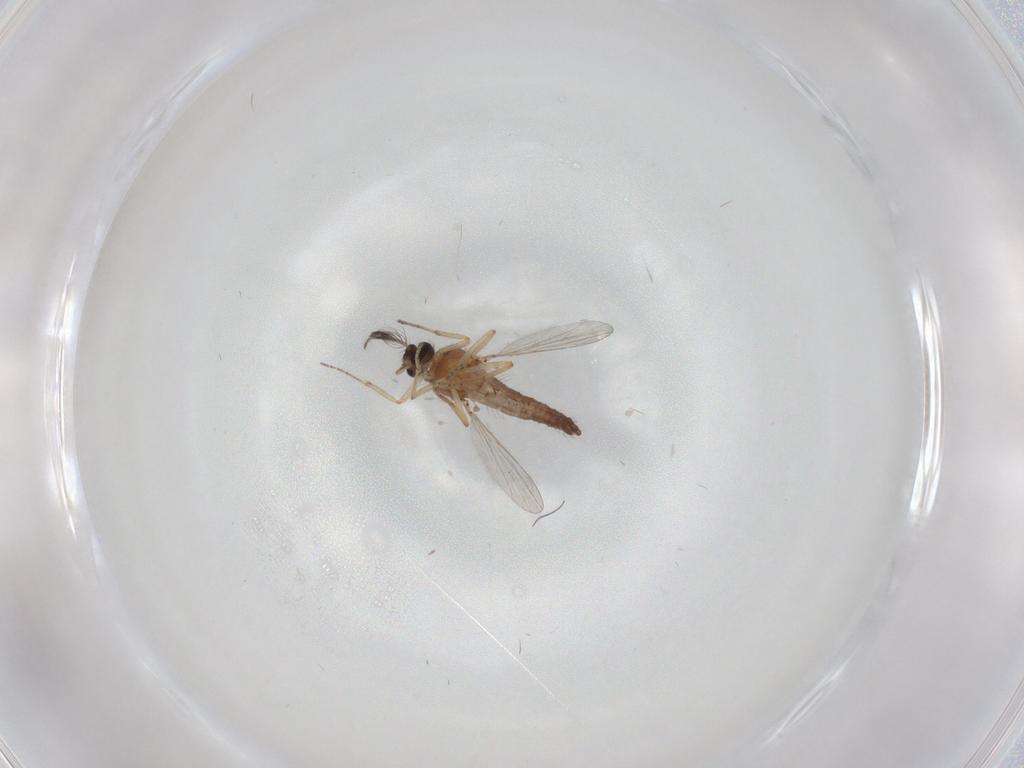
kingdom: Animalia
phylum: Arthropoda
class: Insecta
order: Diptera
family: Ceratopogonidae
